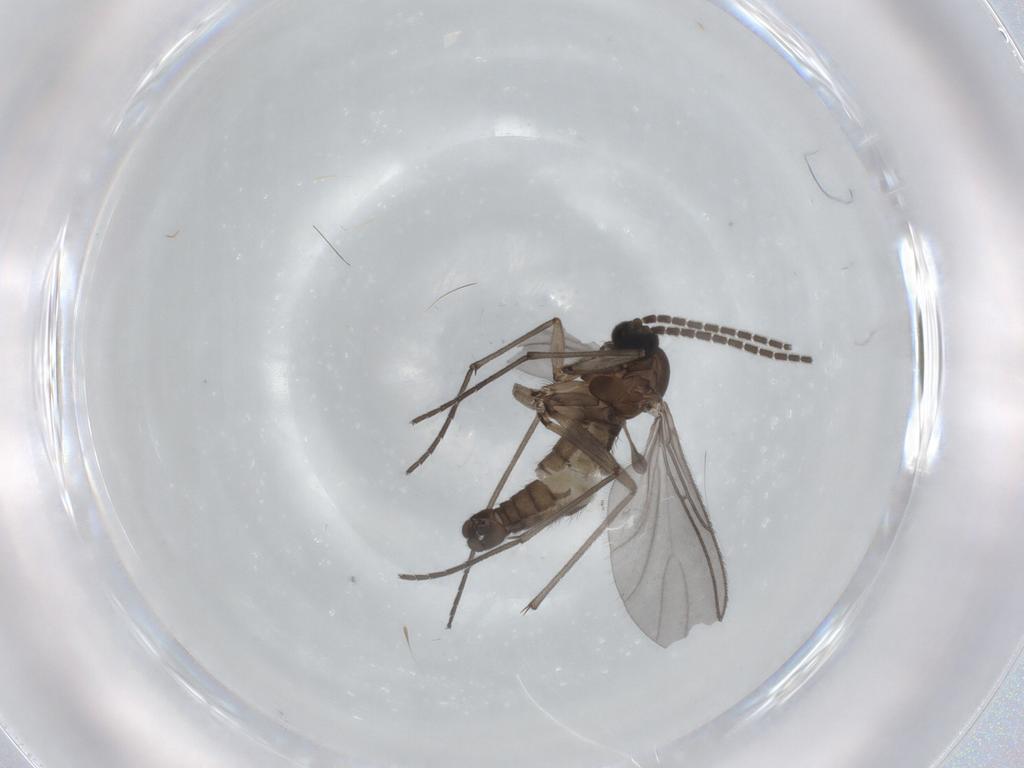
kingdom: Animalia
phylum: Arthropoda
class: Insecta
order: Diptera
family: Sciaridae
